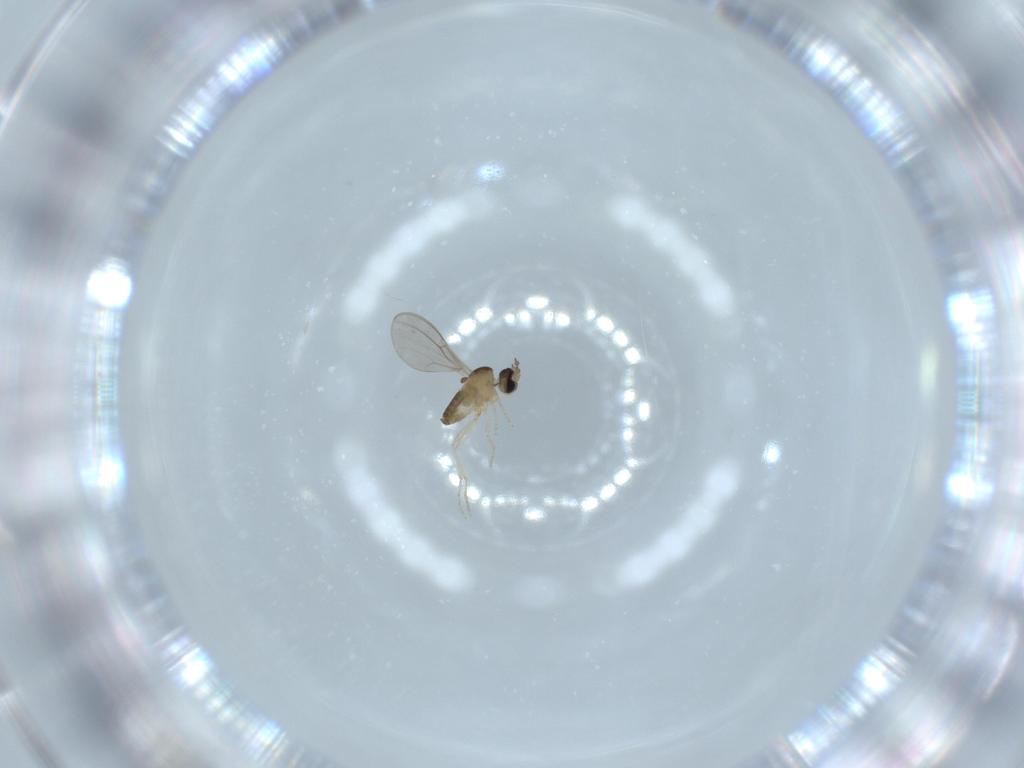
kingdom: Animalia
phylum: Arthropoda
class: Insecta
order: Diptera
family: Cecidomyiidae
